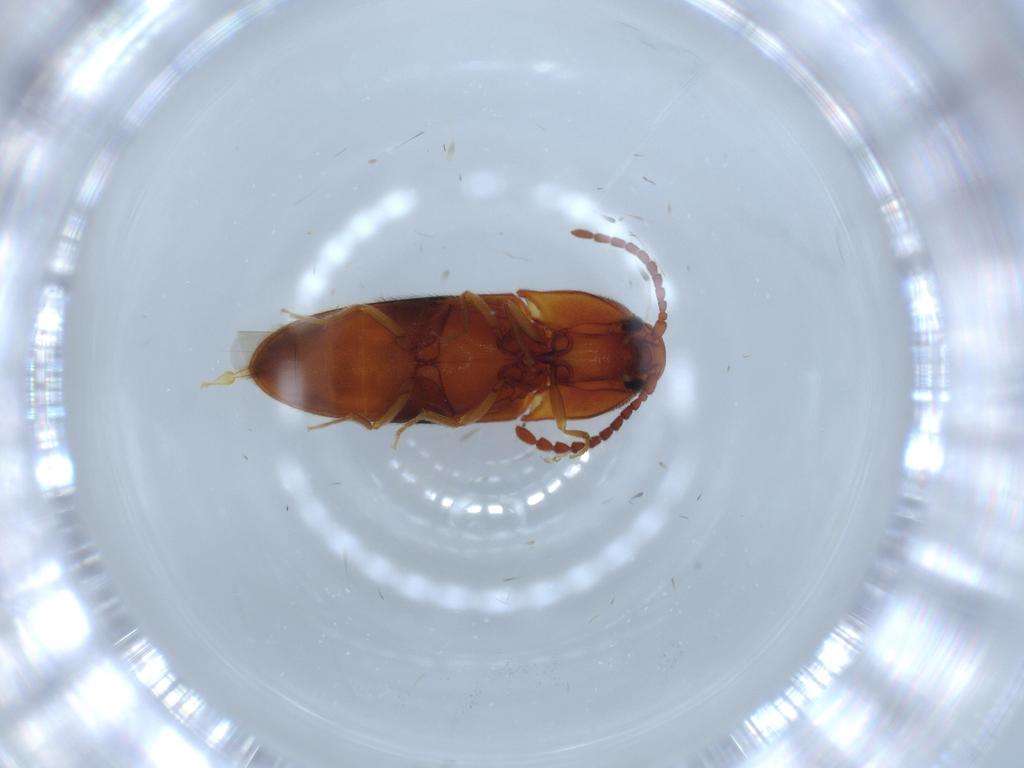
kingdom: Animalia
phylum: Arthropoda
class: Insecta
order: Coleoptera
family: Bostrichidae
